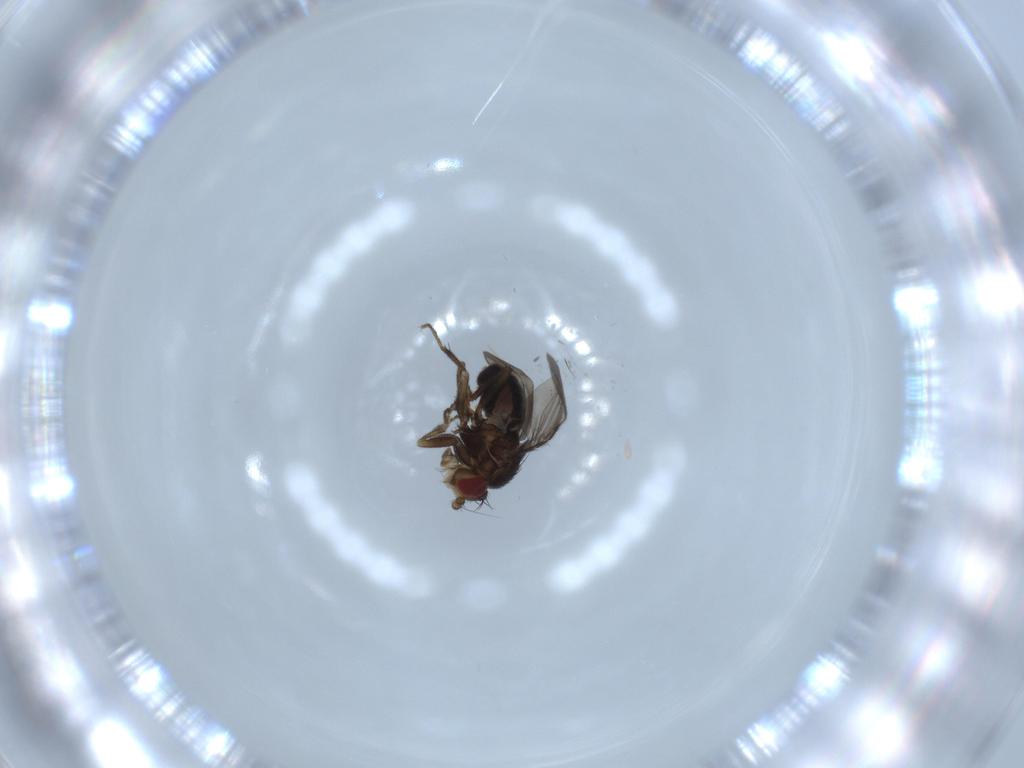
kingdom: Animalia
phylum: Arthropoda
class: Insecta
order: Diptera
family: Sphaeroceridae
